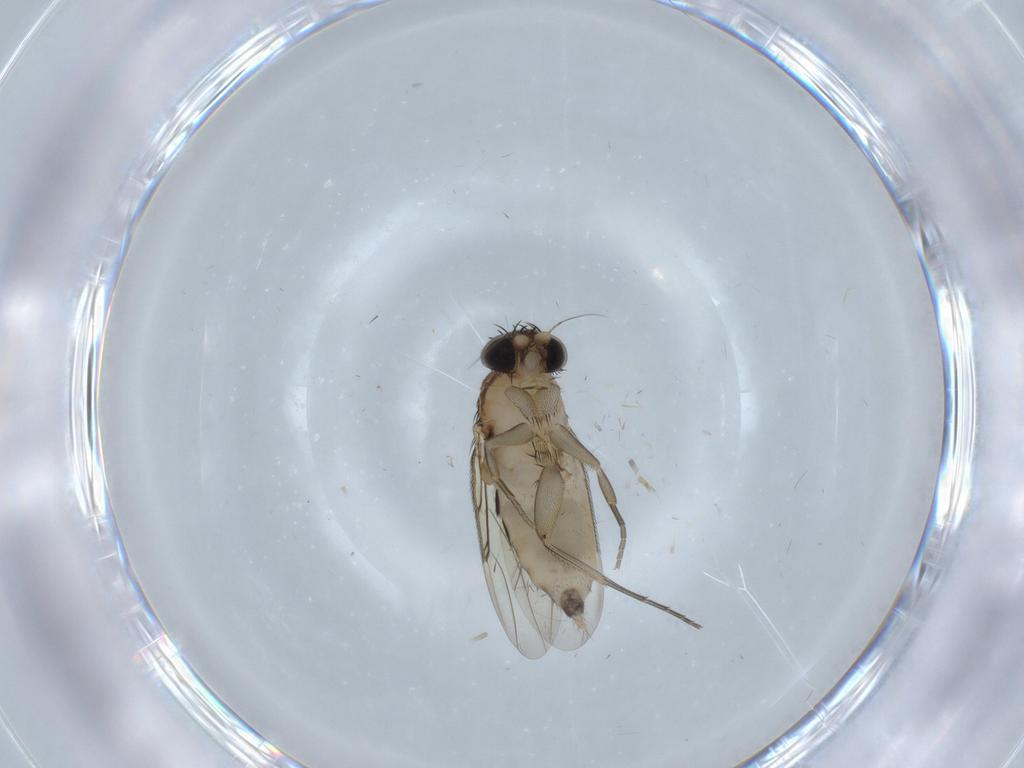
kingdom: Animalia
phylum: Arthropoda
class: Insecta
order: Diptera
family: Phoridae
